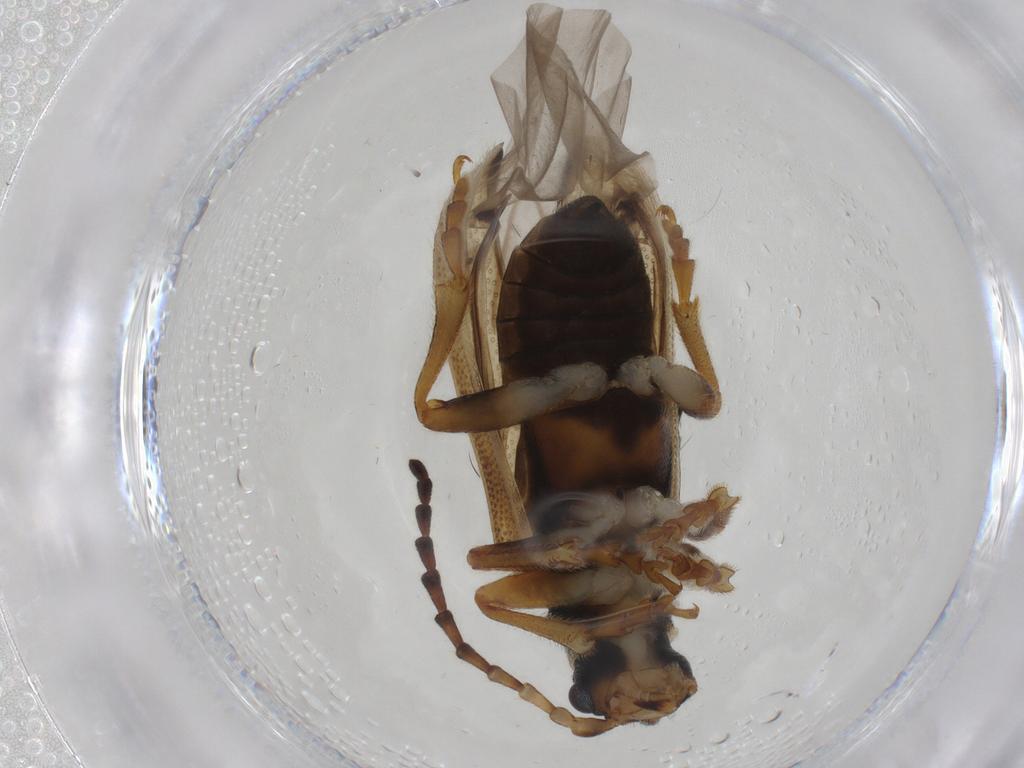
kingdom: Animalia
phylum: Arthropoda
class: Insecta
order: Coleoptera
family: Chrysomelidae
